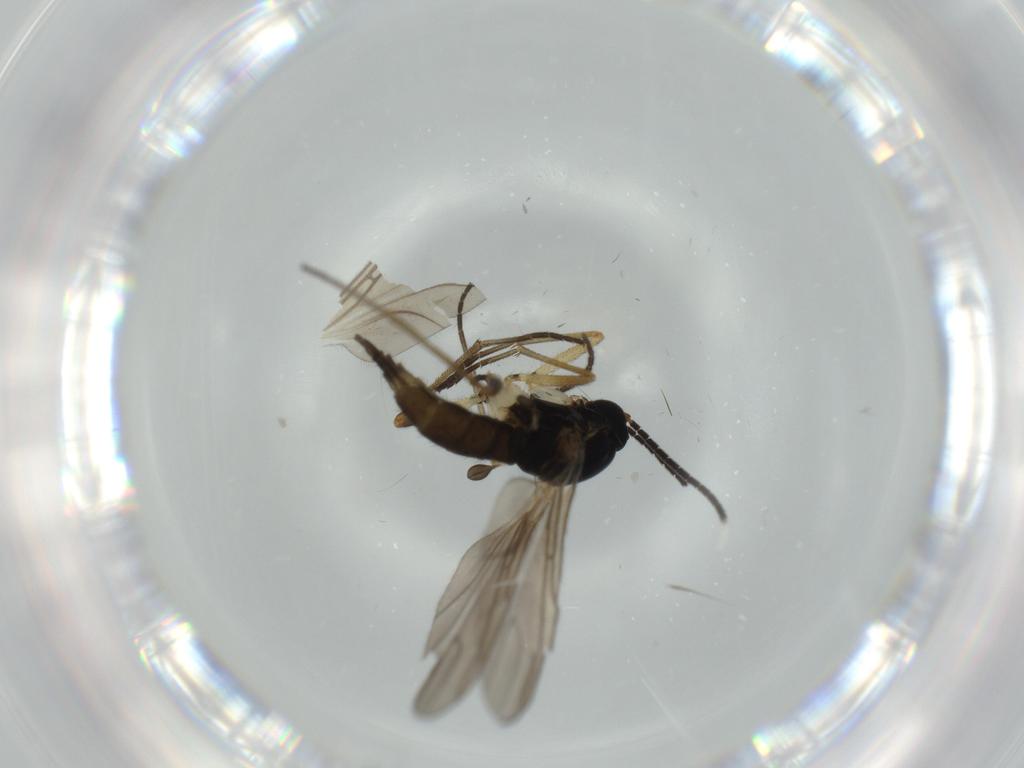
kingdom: Animalia
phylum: Arthropoda
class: Insecta
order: Diptera
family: Sciaridae
